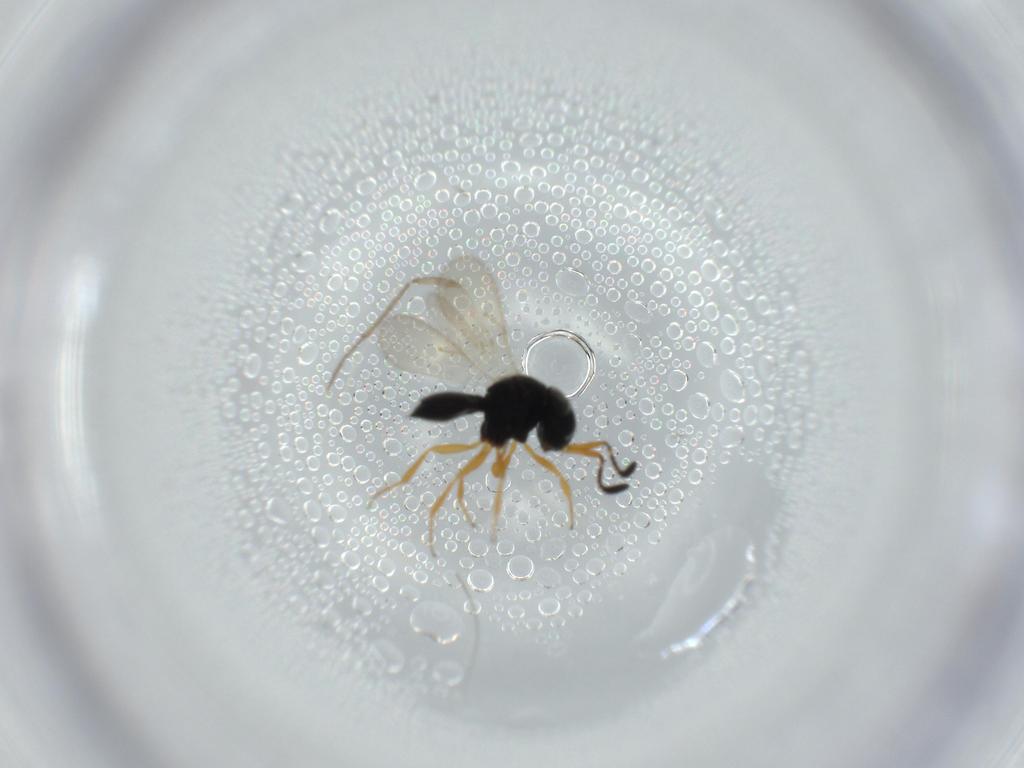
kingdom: Animalia
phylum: Arthropoda
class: Insecta
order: Hymenoptera
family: Scelionidae
